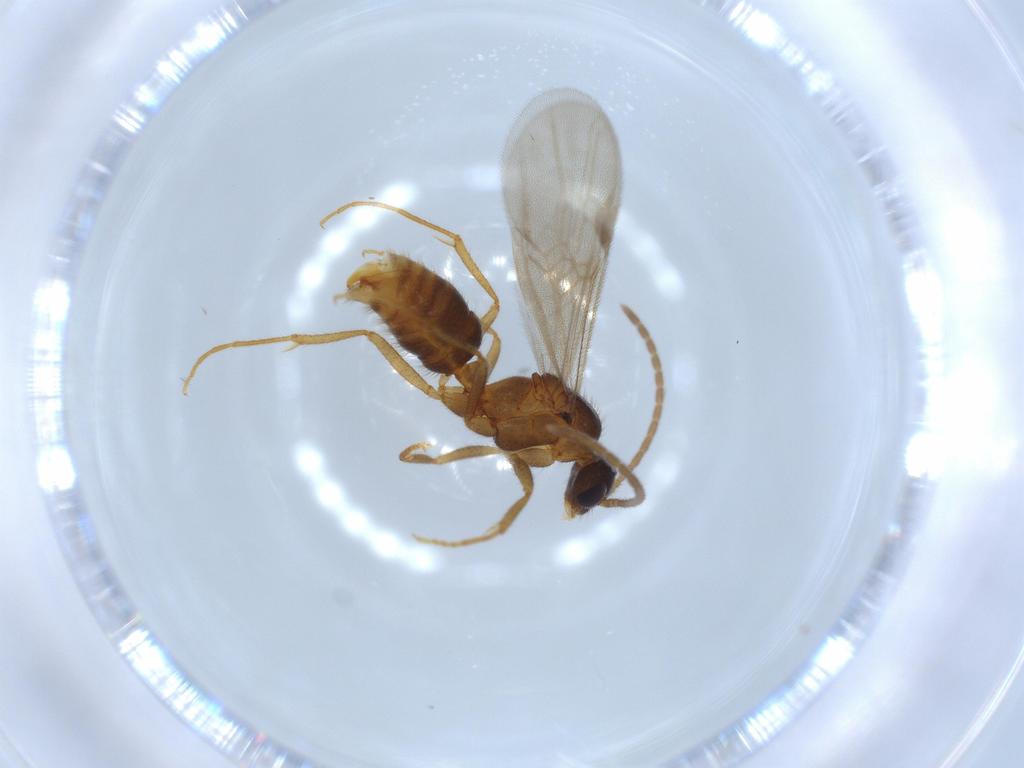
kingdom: Animalia
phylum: Arthropoda
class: Insecta
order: Hymenoptera
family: Formicidae
